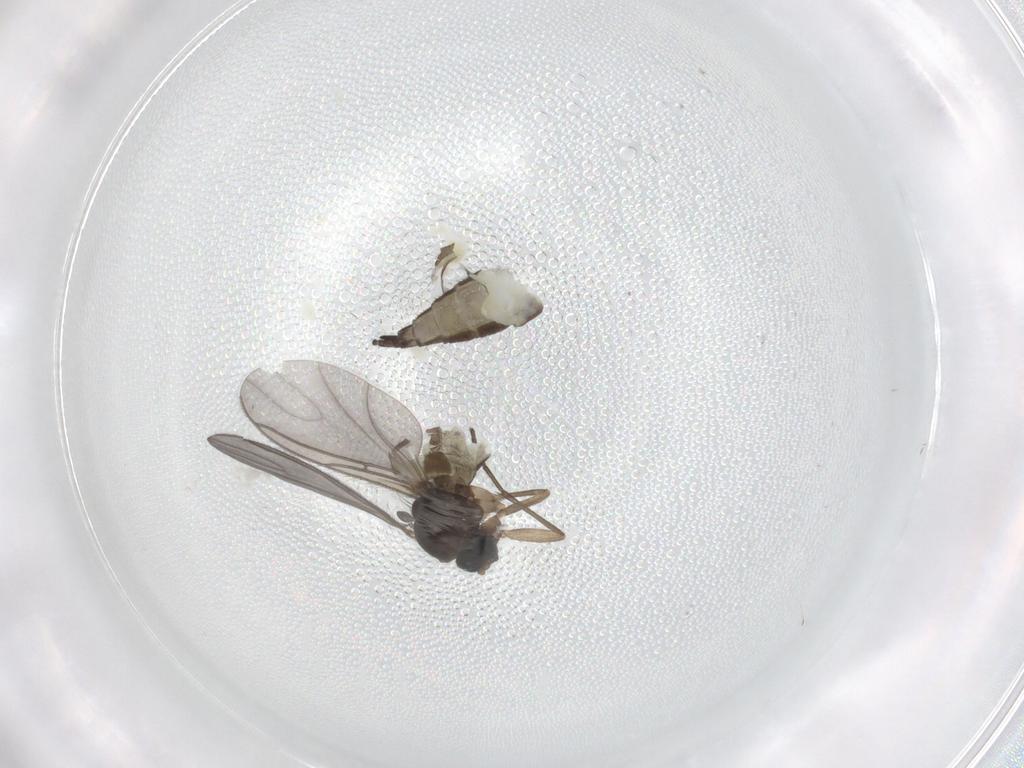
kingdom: Animalia
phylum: Arthropoda
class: Insecta
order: Diptera
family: Sciaridae
